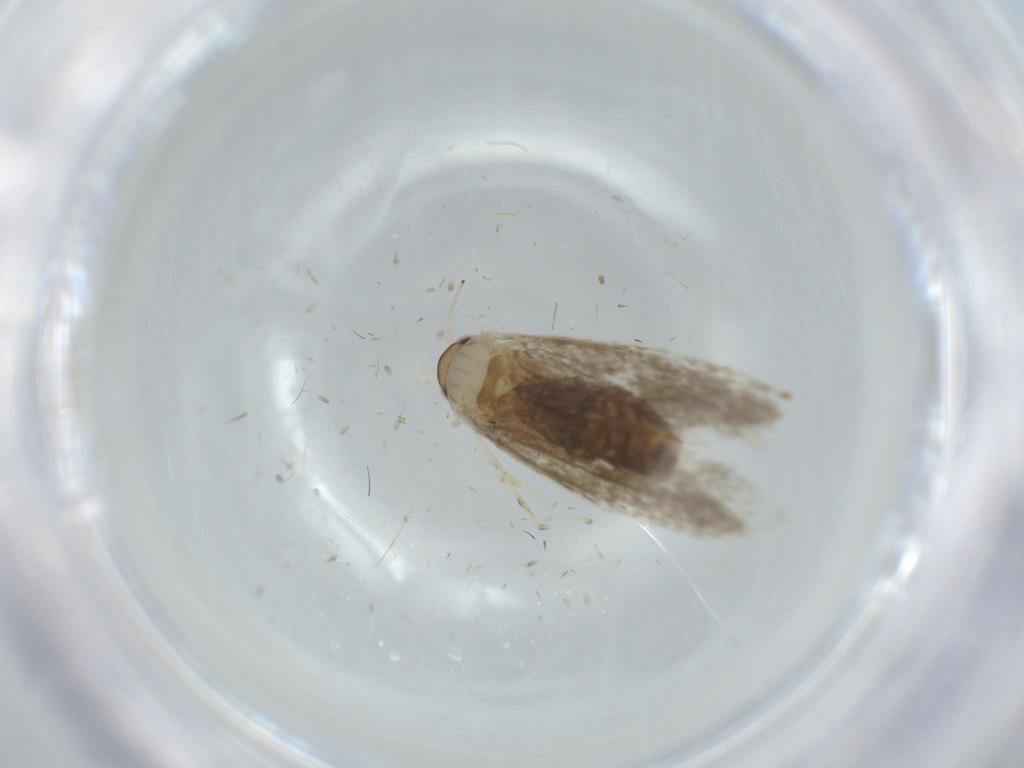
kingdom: Animalia
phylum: Arthropoda
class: Insecta
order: Lepidoptera
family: Tineidae
